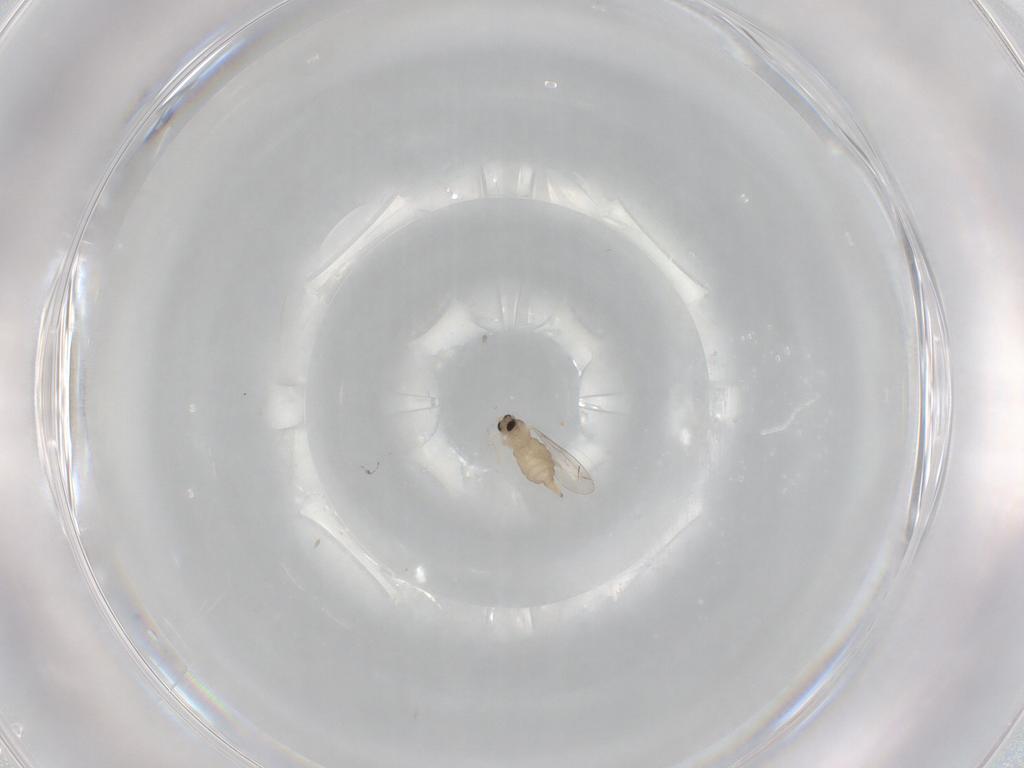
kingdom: Animalia
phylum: Arthropoda
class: Insecta
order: Diptera
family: Cecidomyiidae
